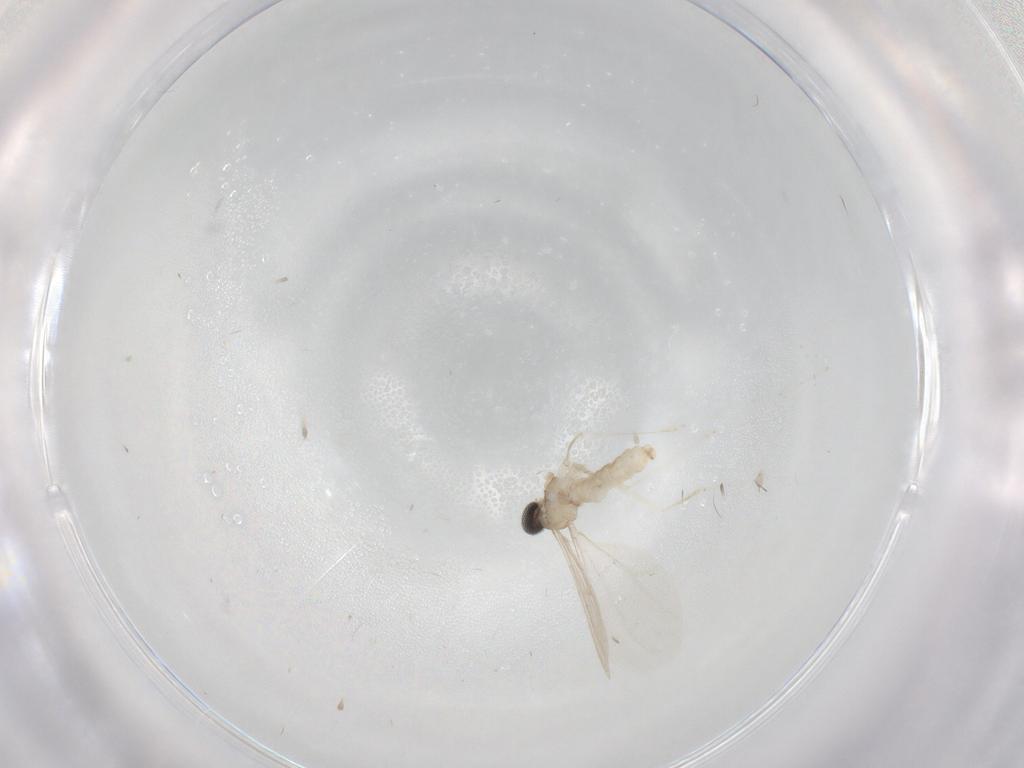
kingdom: Animalia
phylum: Arthropoda
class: Insecta
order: Diptera
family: Cecidomyiidae
